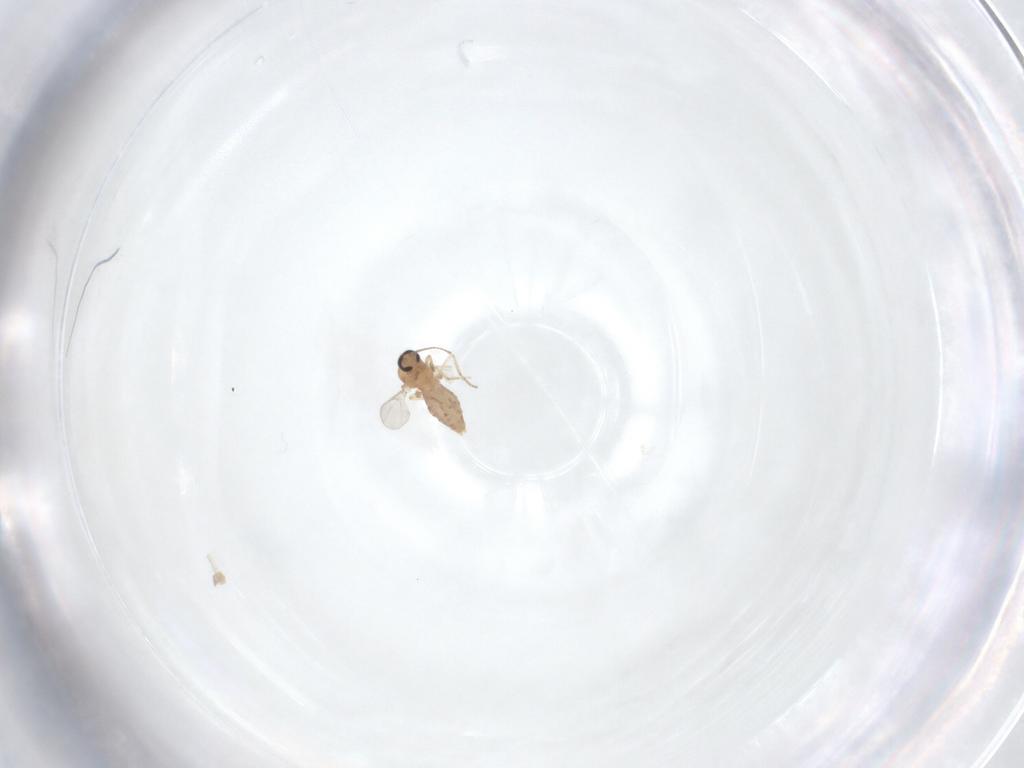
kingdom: Animalia
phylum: Arthropoda
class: Insecta
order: Diptera
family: Ceratopogonidae
